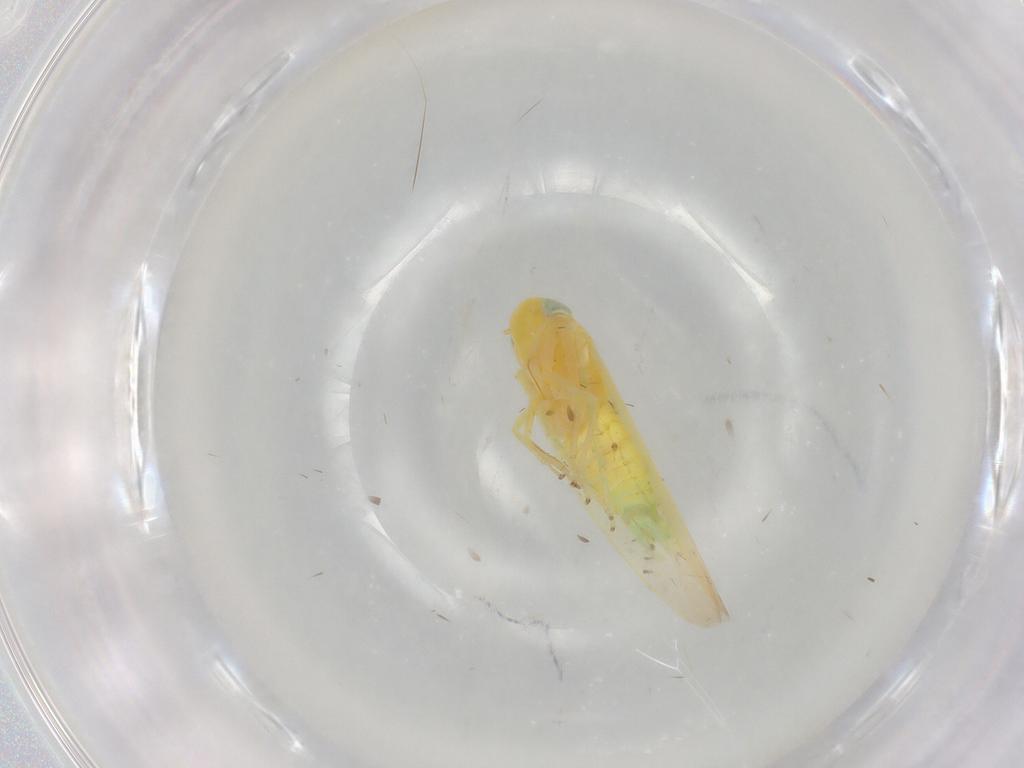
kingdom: Animalia
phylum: Arthropoda
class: Insecta
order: Hemiptera
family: Cicadellidae
